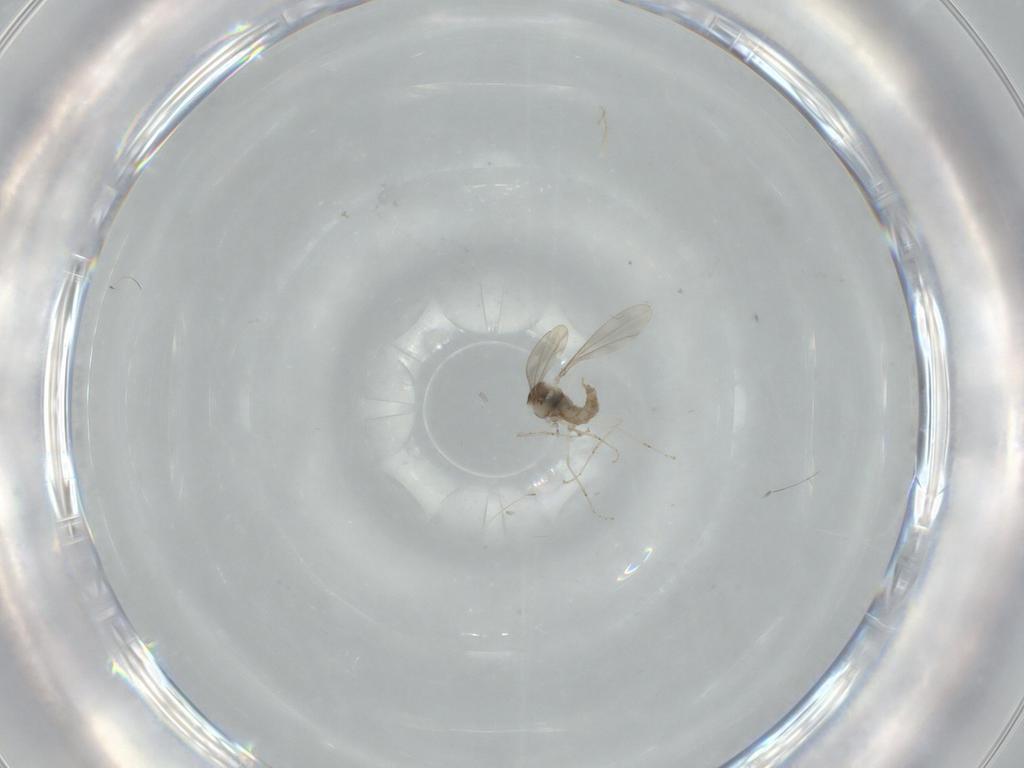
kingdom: Animalia
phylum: Arthropoda
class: Insecta
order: Diptera
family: Cecidomyiidae
